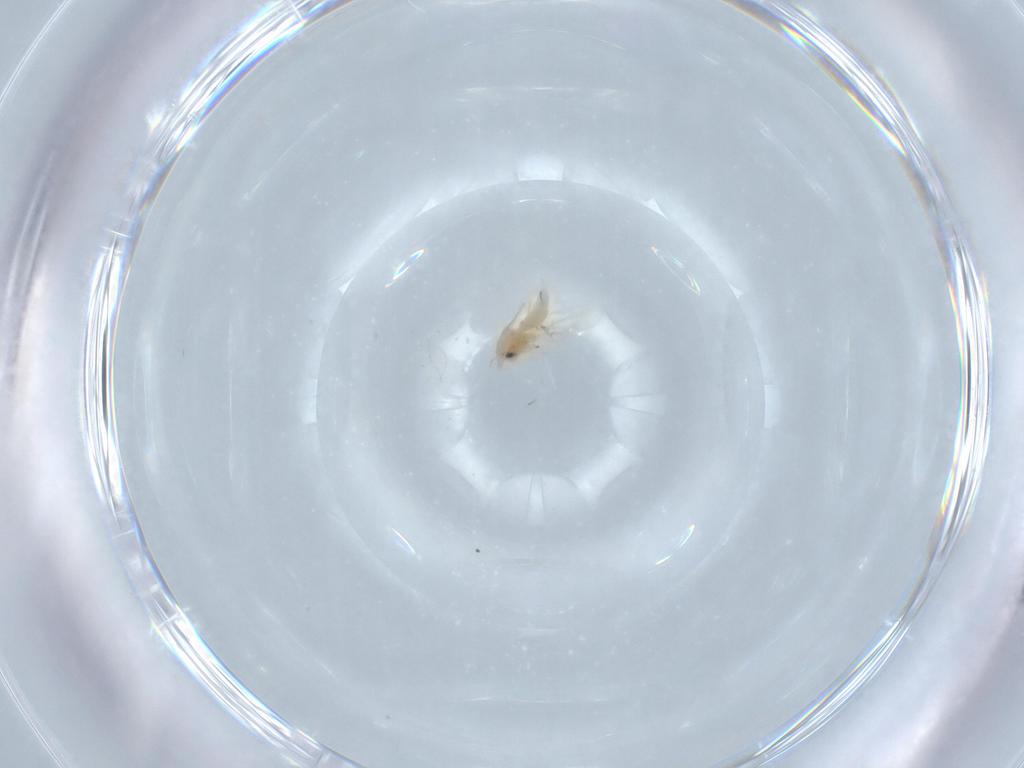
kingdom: Animalia
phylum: Arthropoda
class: Insecta
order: Hemiptera
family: Aleyrodidae
